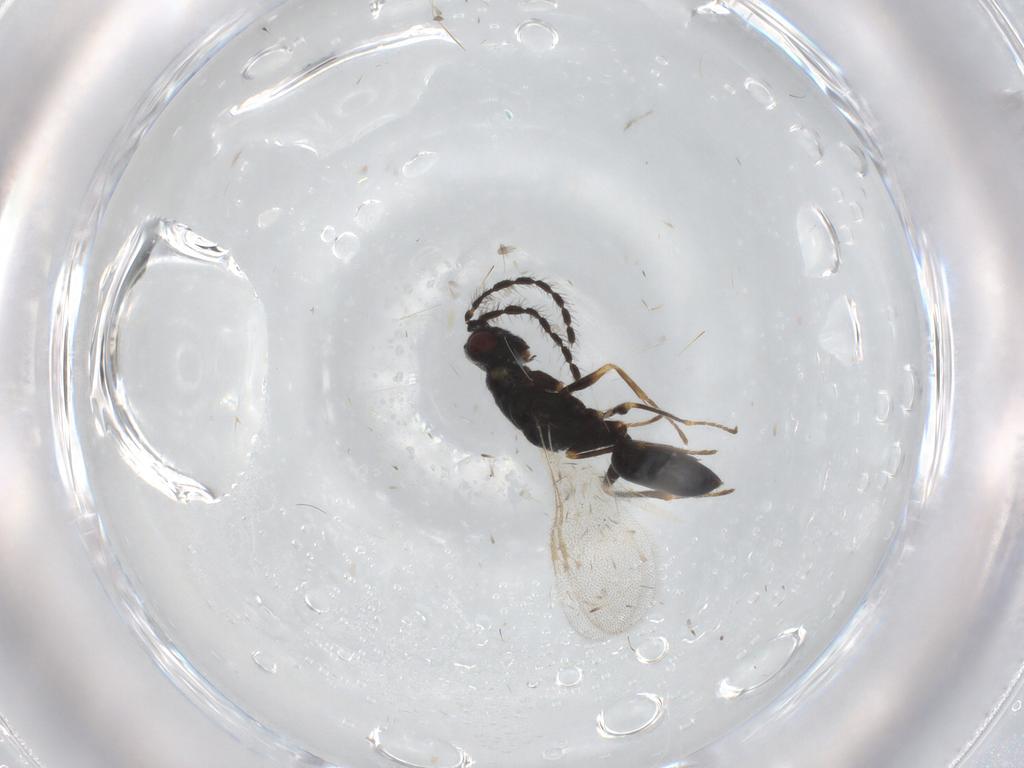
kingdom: Animalia
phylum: Arthropoda
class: Insecta
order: Hymenoptera
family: Eurytomidae
